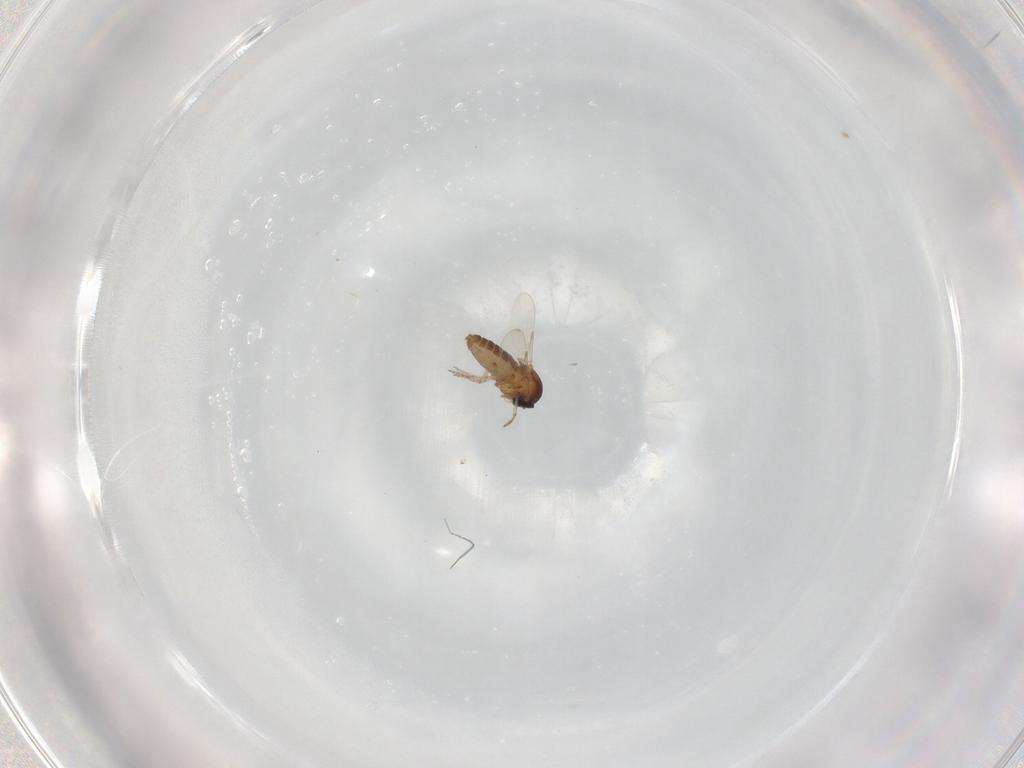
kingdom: Animalia
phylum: Arthropoda
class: Insecta
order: Diptera
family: Ceratopogonidae
